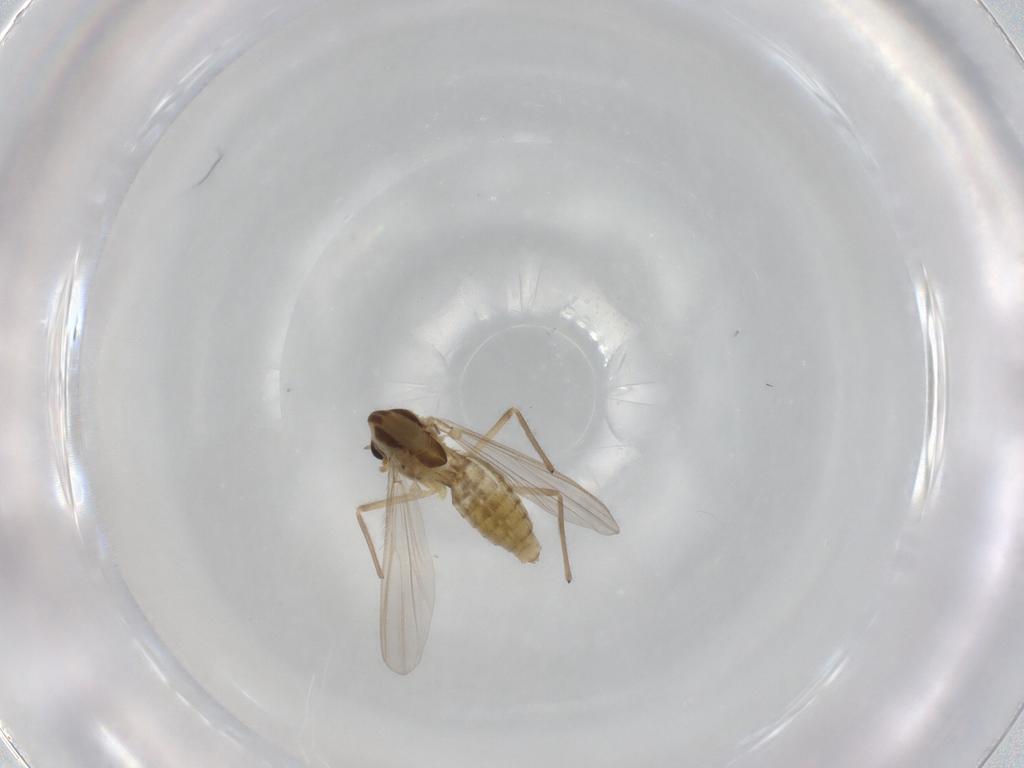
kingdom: Animalia
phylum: Arthropoda
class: Insecta
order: Diptera
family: Chironomidae
